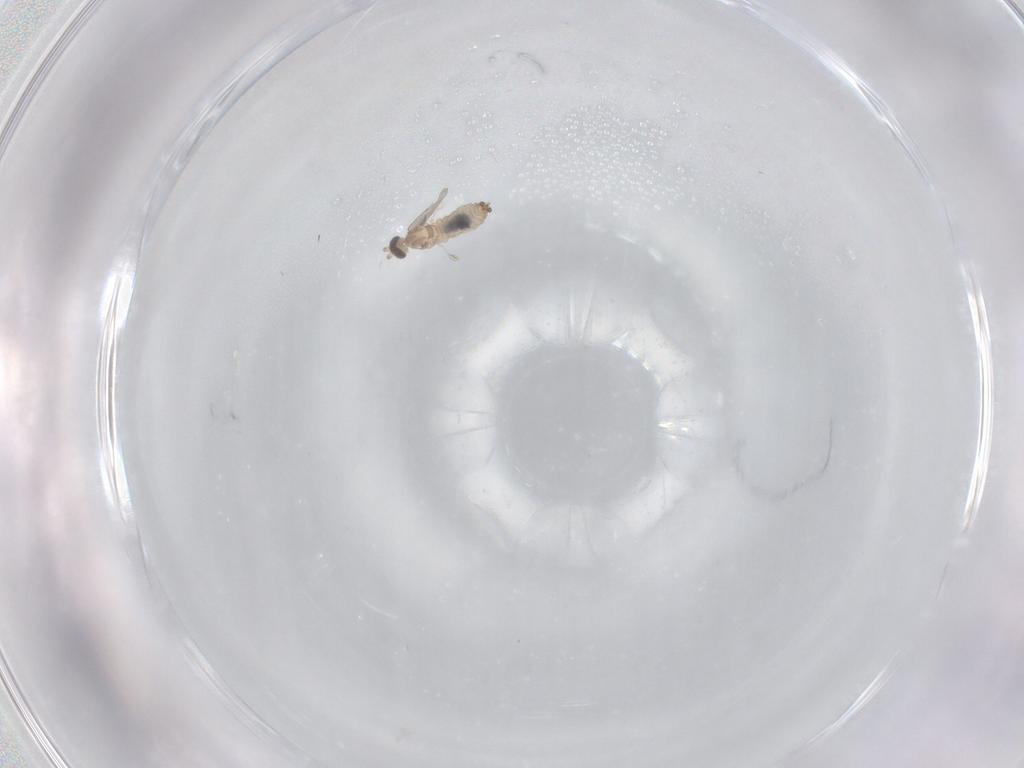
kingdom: Animalia
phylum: Arthropoda
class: Insecta
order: Diptera
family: Cecidomyiidae
